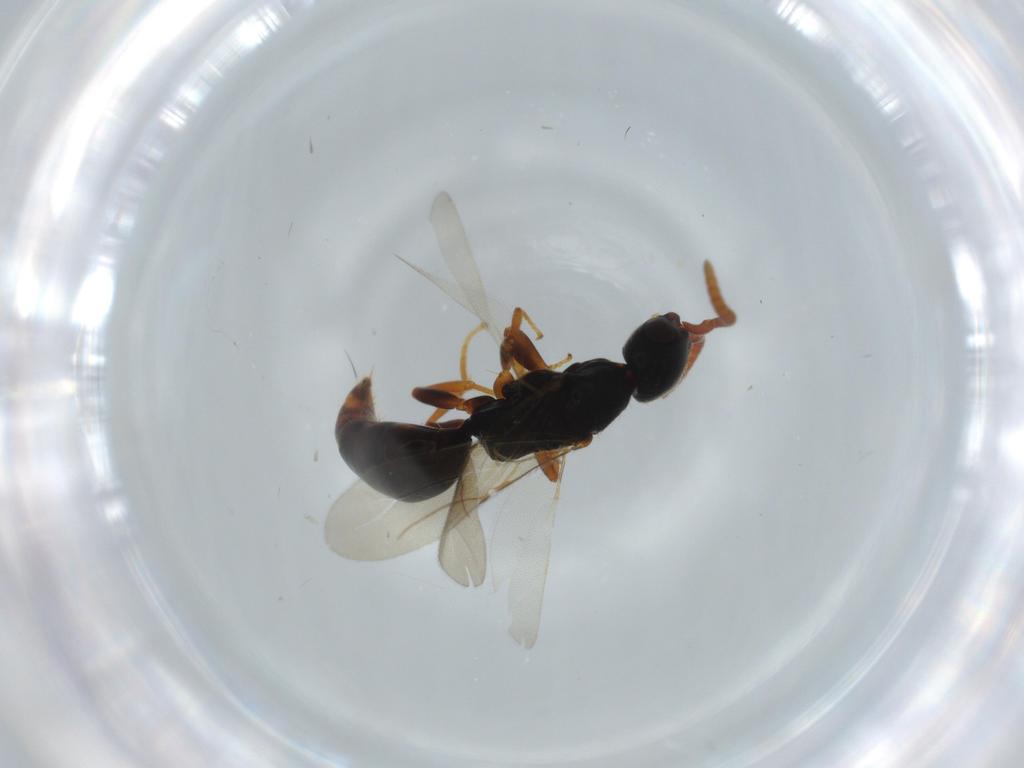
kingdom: Animalia
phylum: Arthropoda
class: Insecta
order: Hymenoptera
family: Bethylidae
